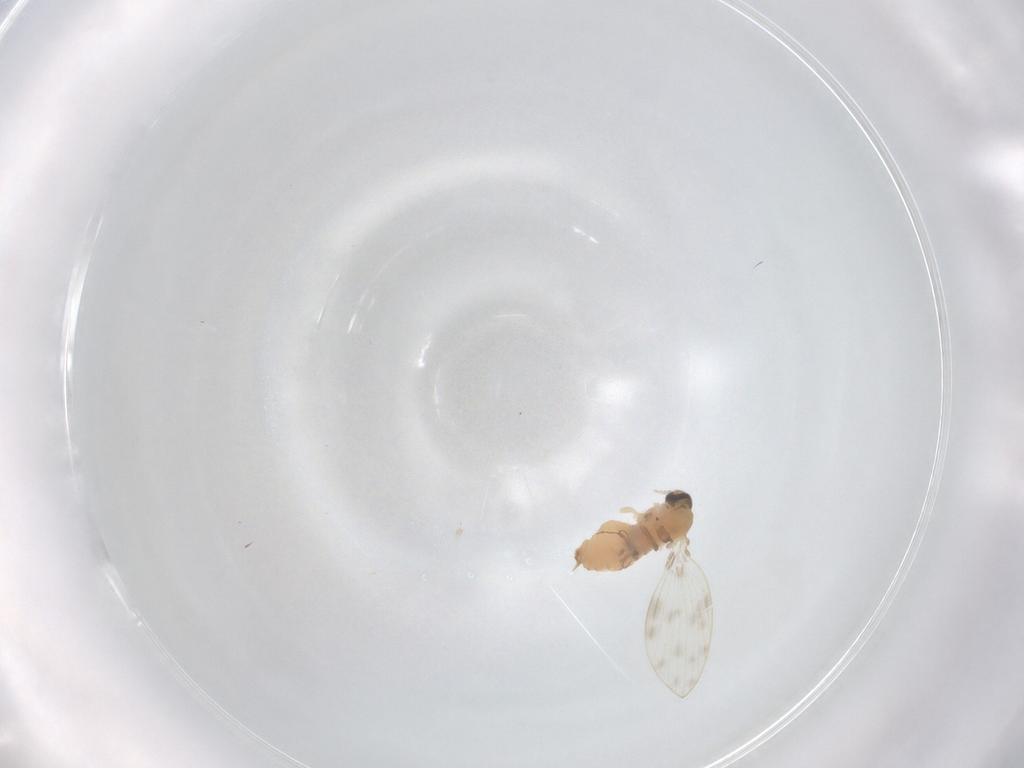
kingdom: Animalia
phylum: Arthropoda
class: Insecta
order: Diptera
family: Psychodidae
